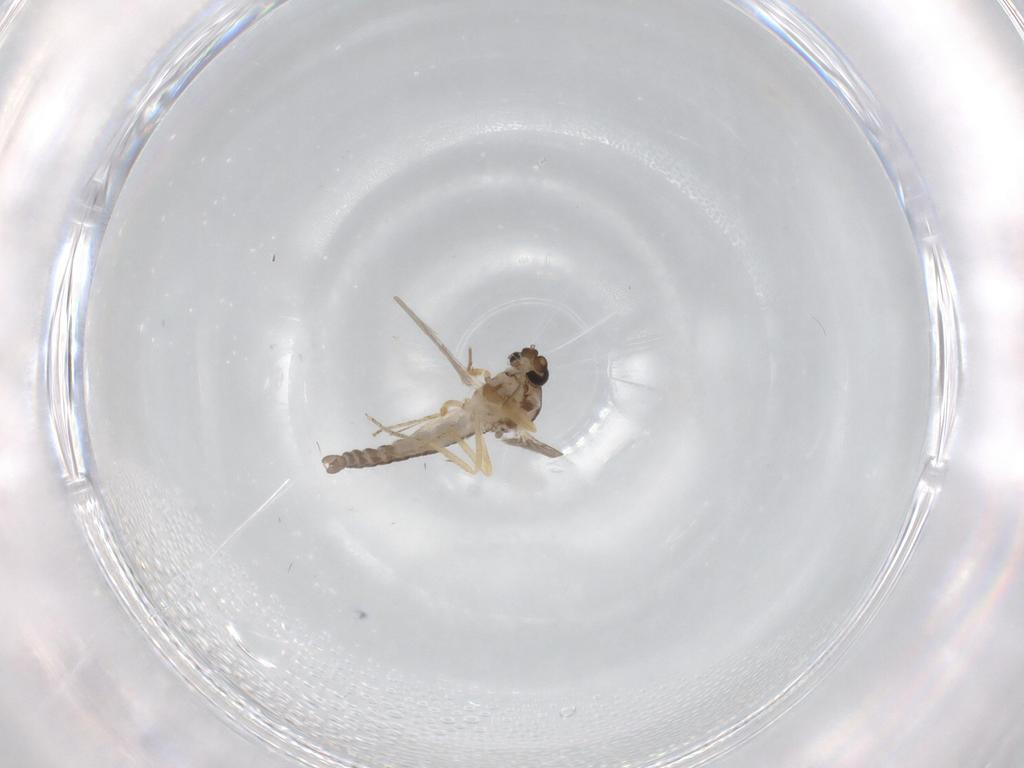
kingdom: Animalia
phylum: Arthropoda
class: Insecta
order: Diptera
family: Ceratopogonidae
